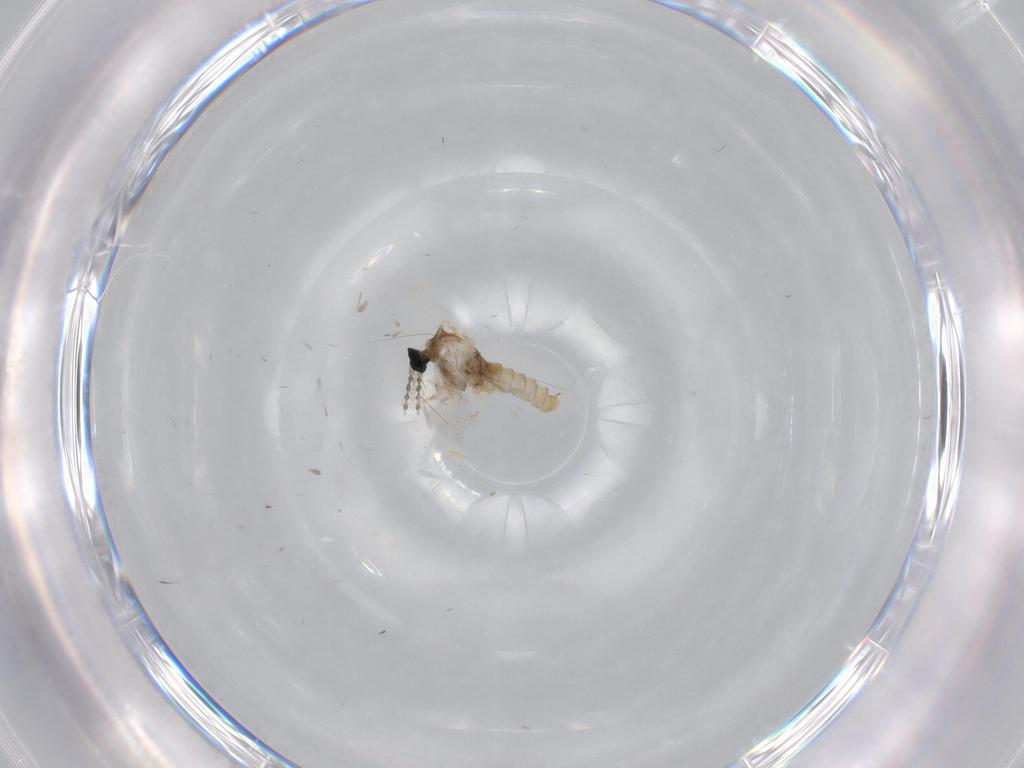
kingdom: Animalia
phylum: Arthropoda
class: Insecta
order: Diptera
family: Cecidomyiidae
